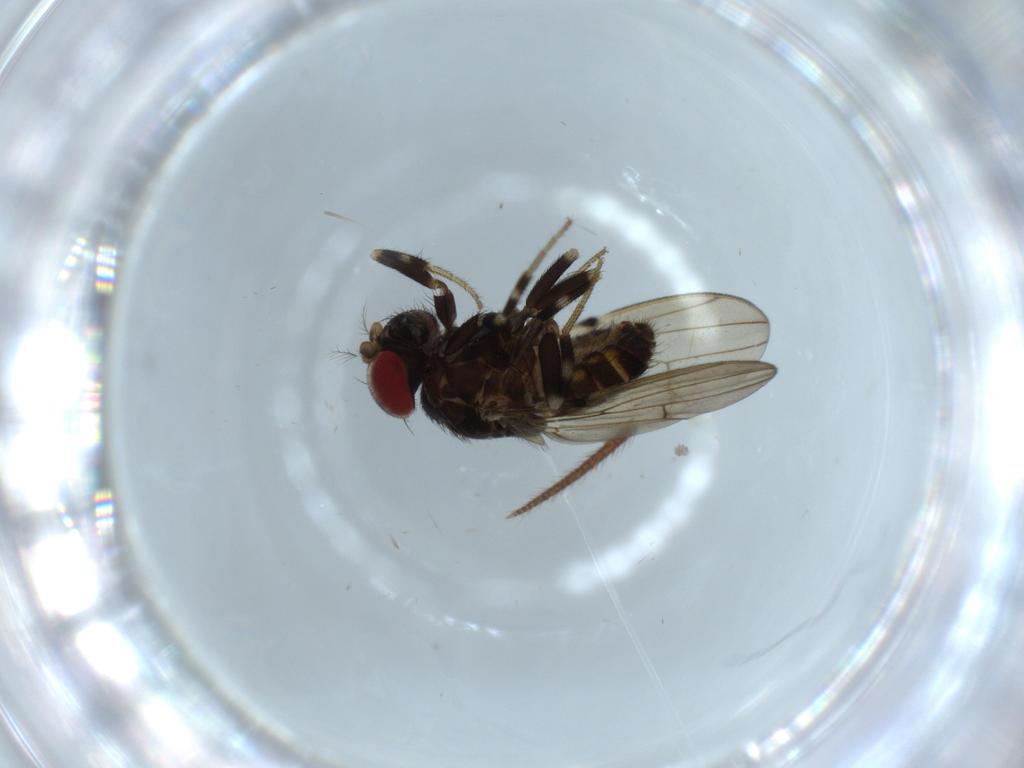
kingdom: Animalia
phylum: Arthropoda
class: Insecta
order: Diptera
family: Drosophilidae
